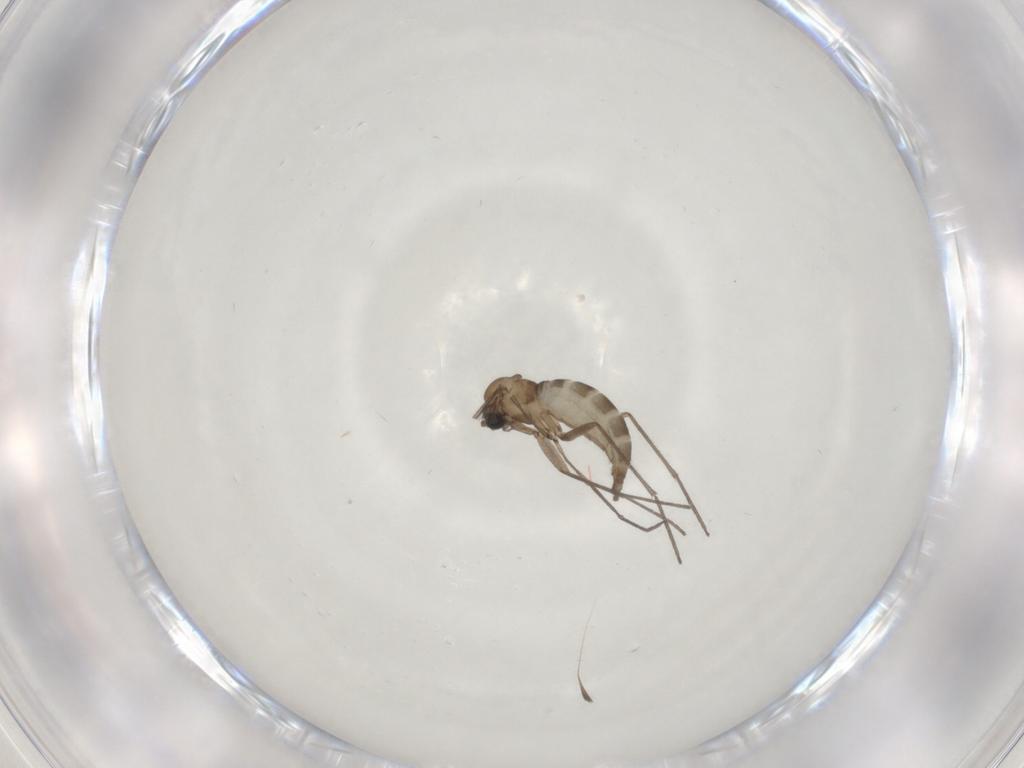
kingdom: Animalia
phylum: Arthropoda
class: Insecta
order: Diptera
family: Sciaridae
